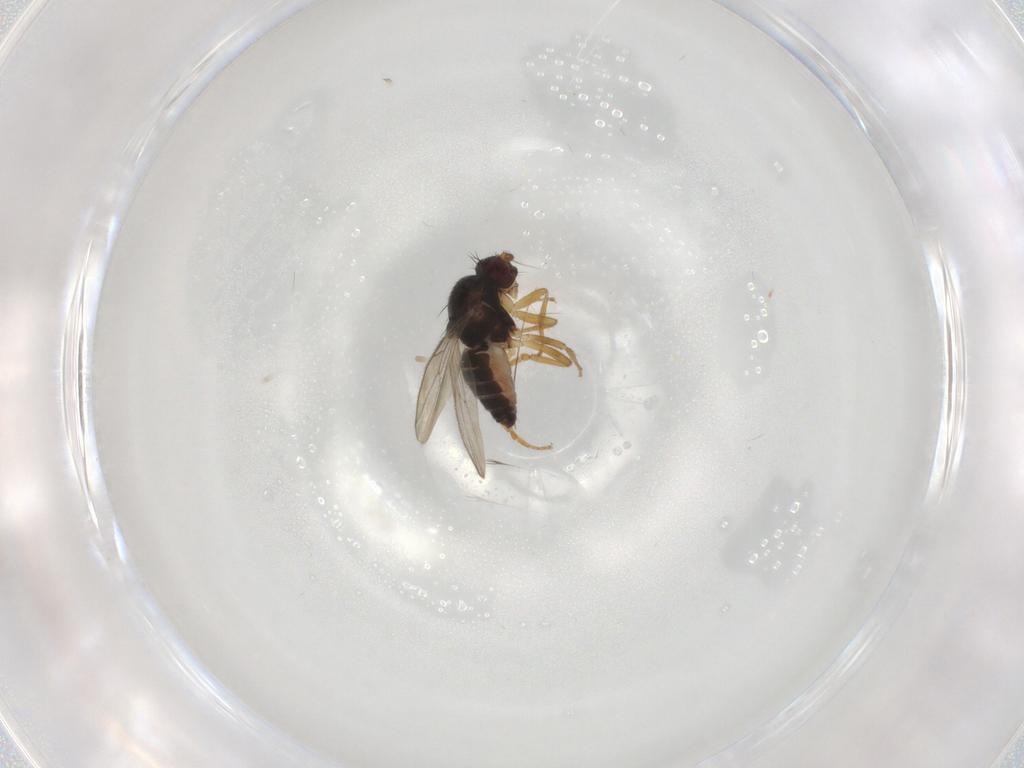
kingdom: Animalia
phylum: Arthropoda
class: Insecta
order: Diptera
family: Sphaeroceridae
